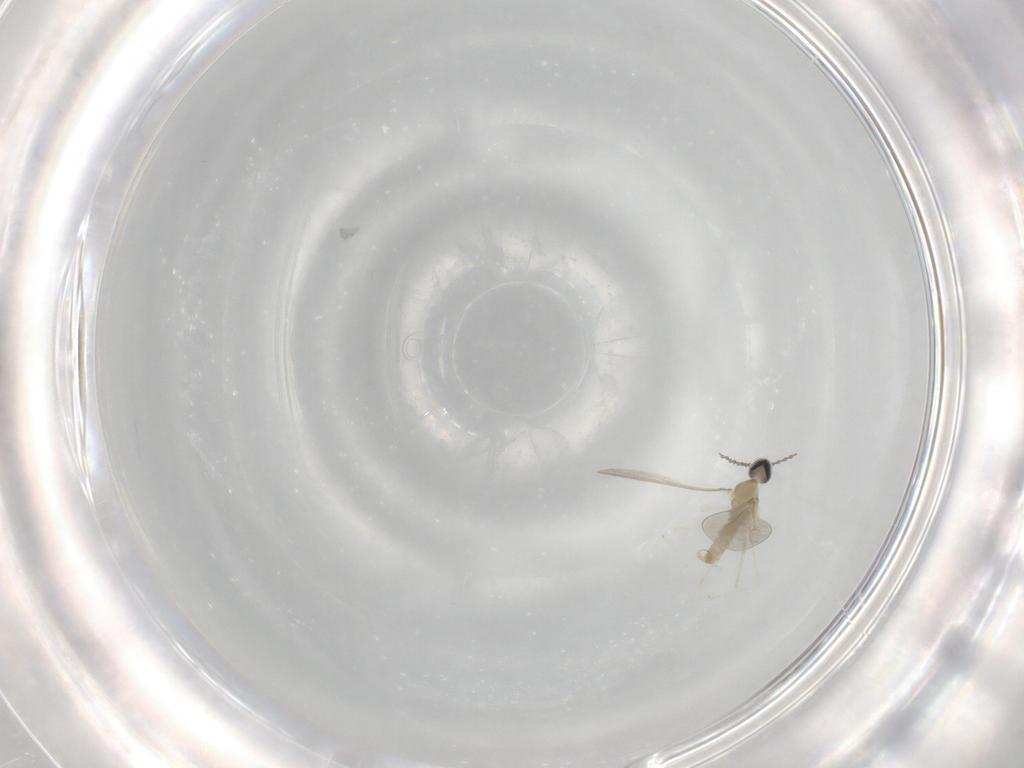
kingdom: Animalia
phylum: Arthropoda
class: Insecta
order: Diptera
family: Cecidomyiidae
